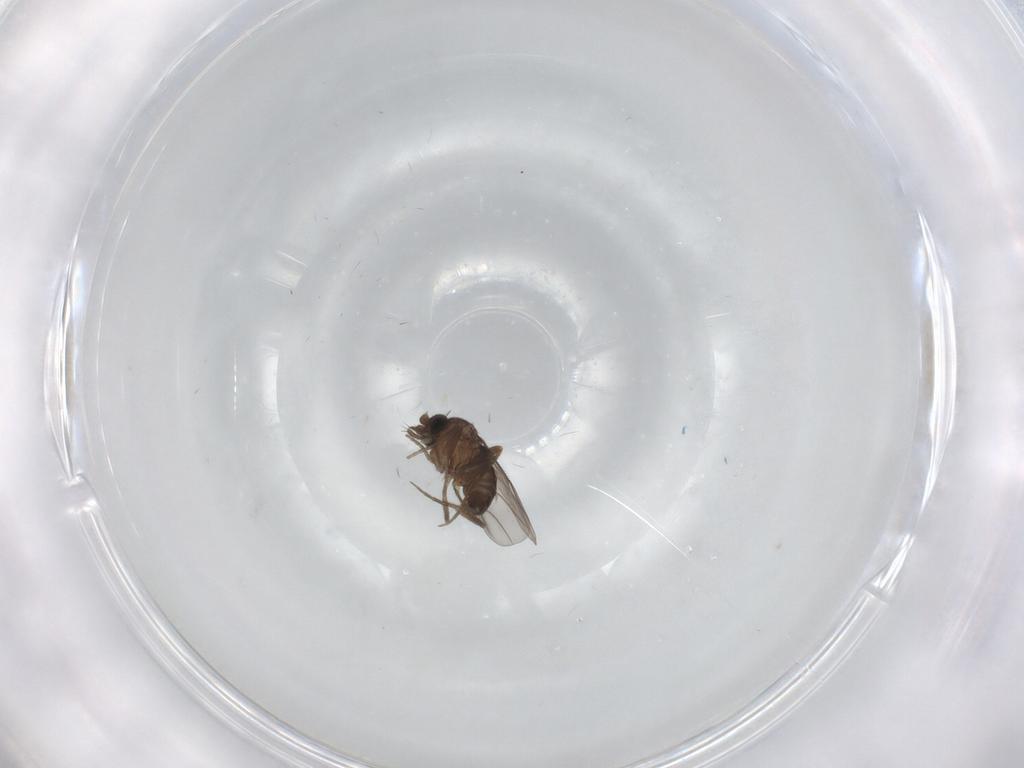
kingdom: Animalia
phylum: Arthropoda
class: Insecta
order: Diptera
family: Phoridae
